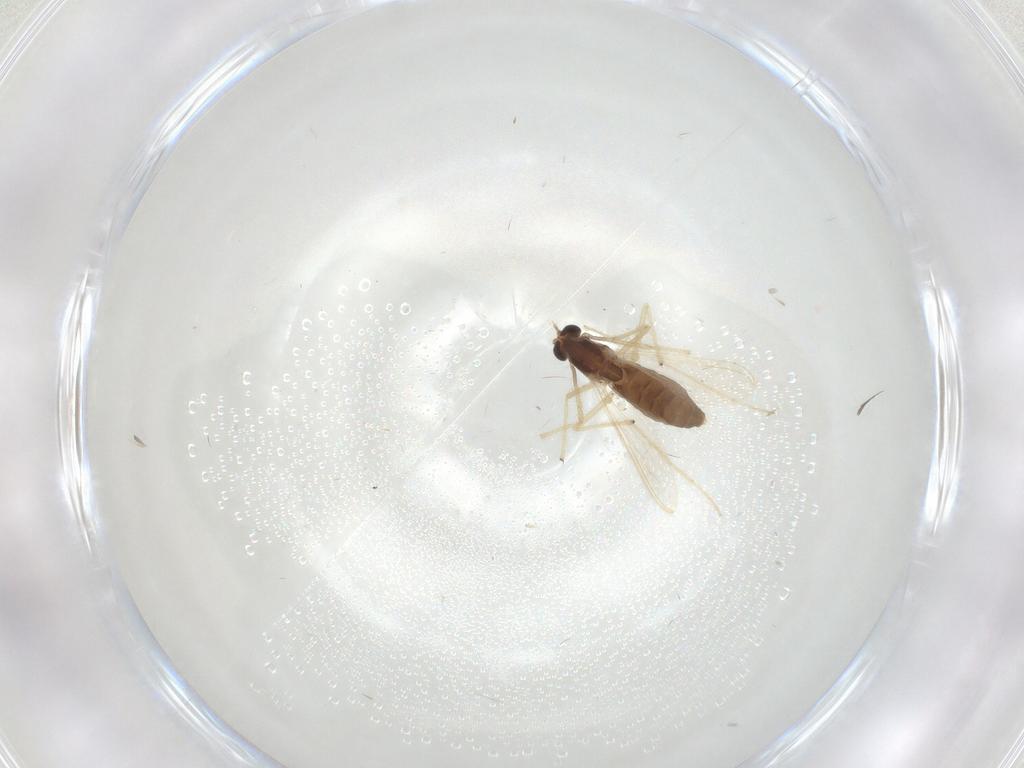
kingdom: Animalia
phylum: Arthropoda
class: Insecta
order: Diptera
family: Chironomidae
